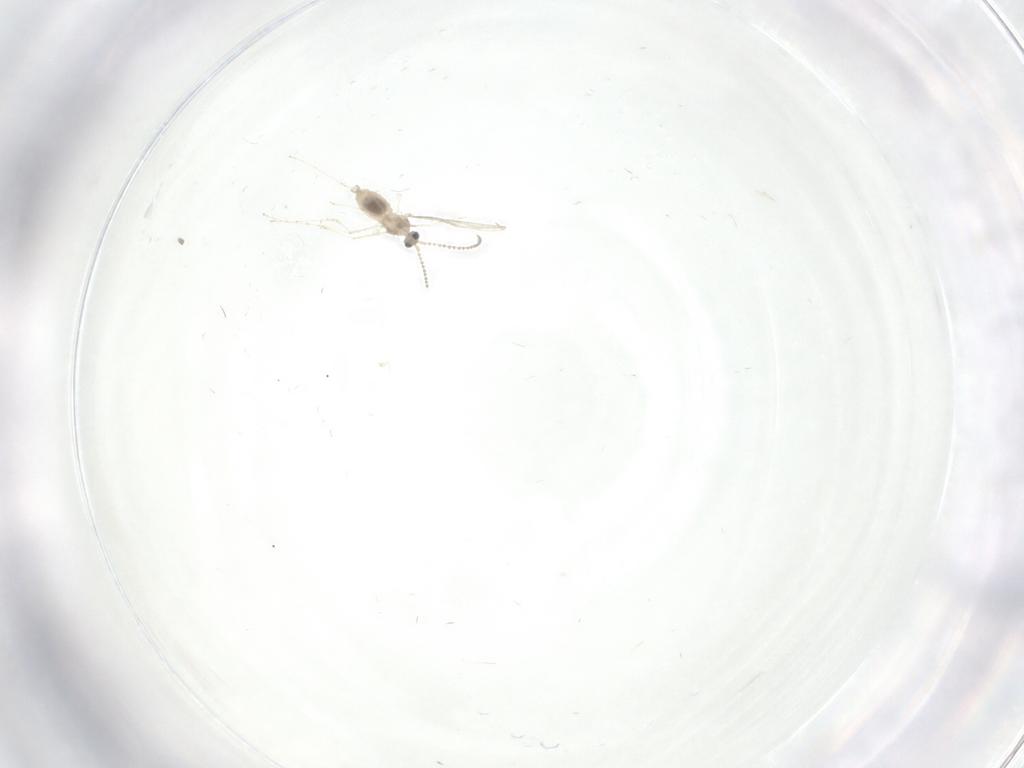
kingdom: Animalia
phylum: Arthropoda
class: Insecta
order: Diptera
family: Cecidomyiidae
